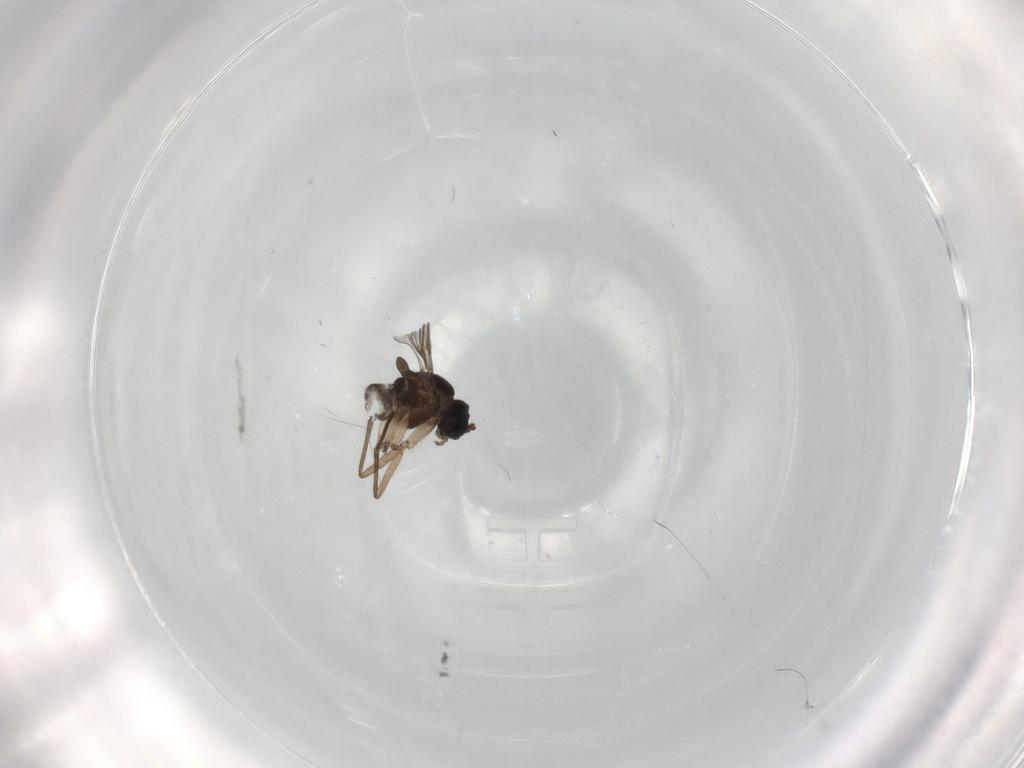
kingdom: Animalia
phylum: Arthropoda
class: Insecta
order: Diptera
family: Sciaridae
